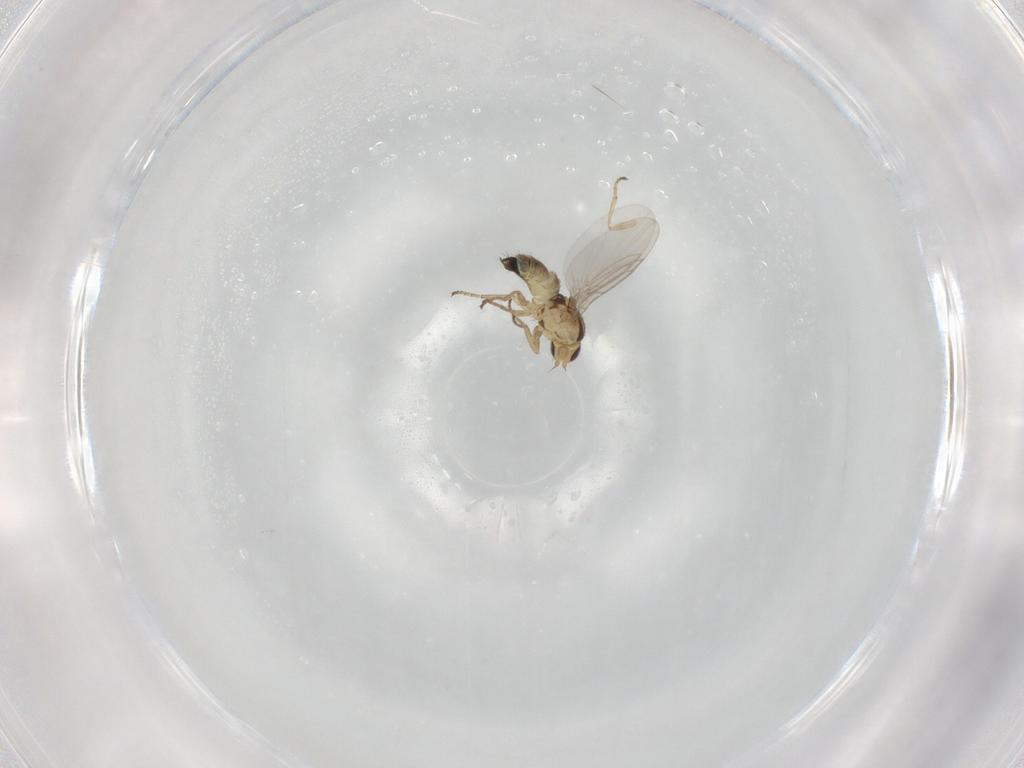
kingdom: Animalia
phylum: Arthropoda
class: Insecta
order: Diptera
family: Agromyzidae
